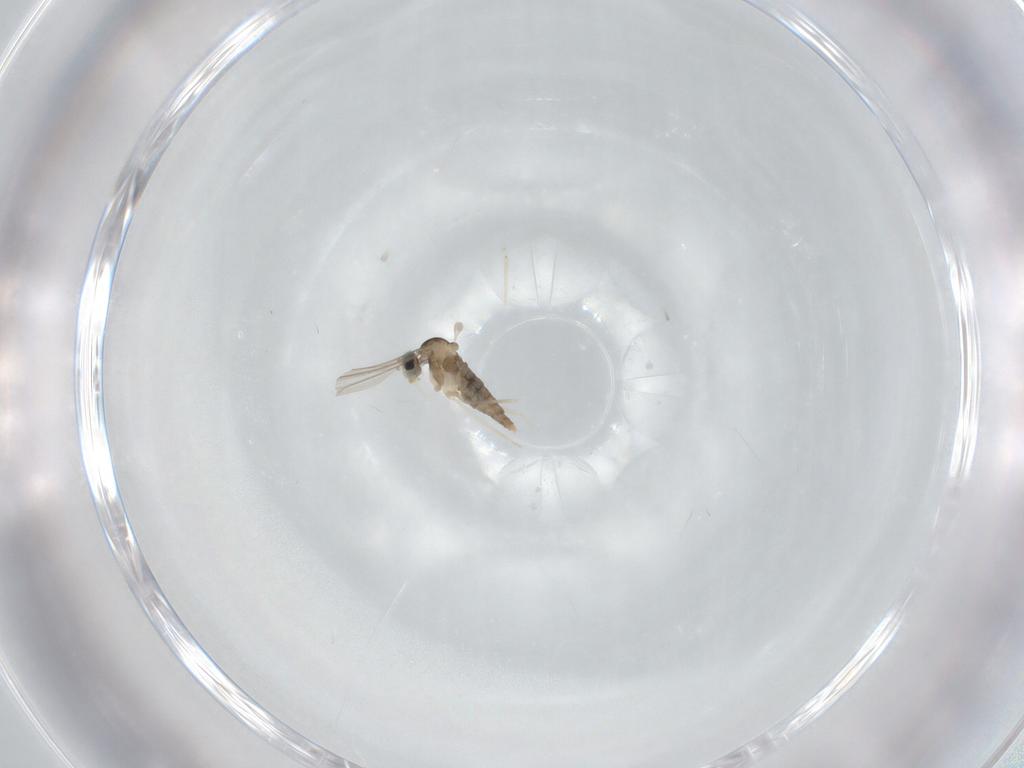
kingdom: Animalia
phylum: Arthropoda
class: Insecta
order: Diptera
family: Cecidomyiidae
